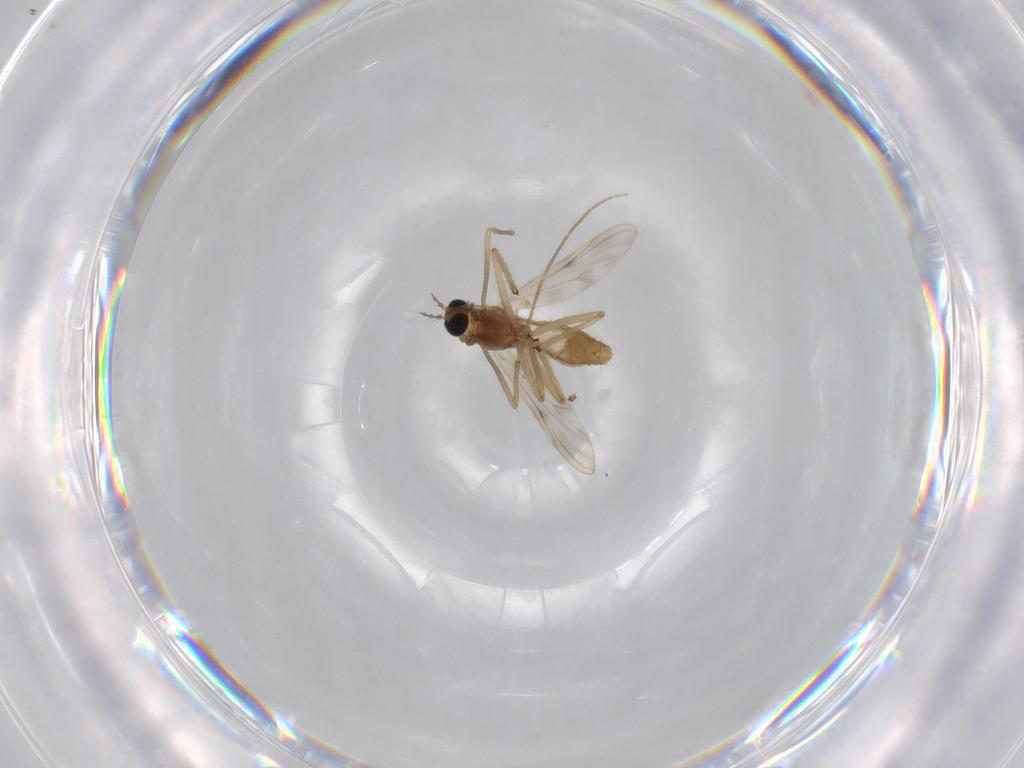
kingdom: Animalia
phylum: Arthropoda
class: Insecta
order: Diptera
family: Chironomidae
